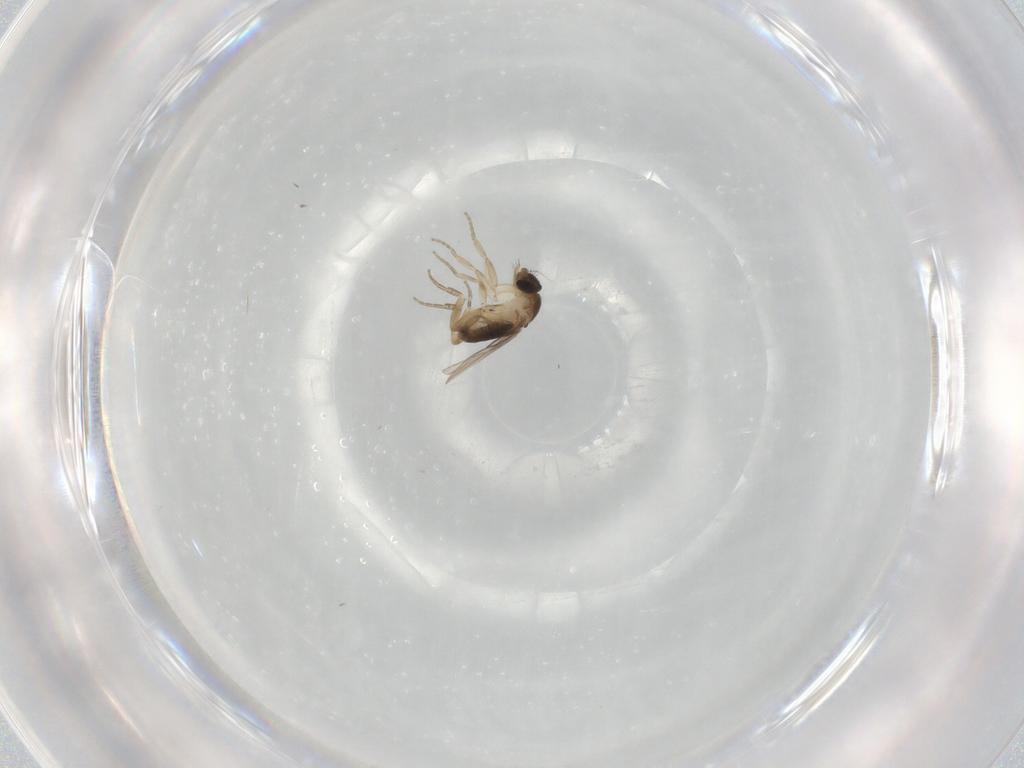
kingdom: Animalia
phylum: Arthropoda
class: Insecta
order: Diptera
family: Phoridae
